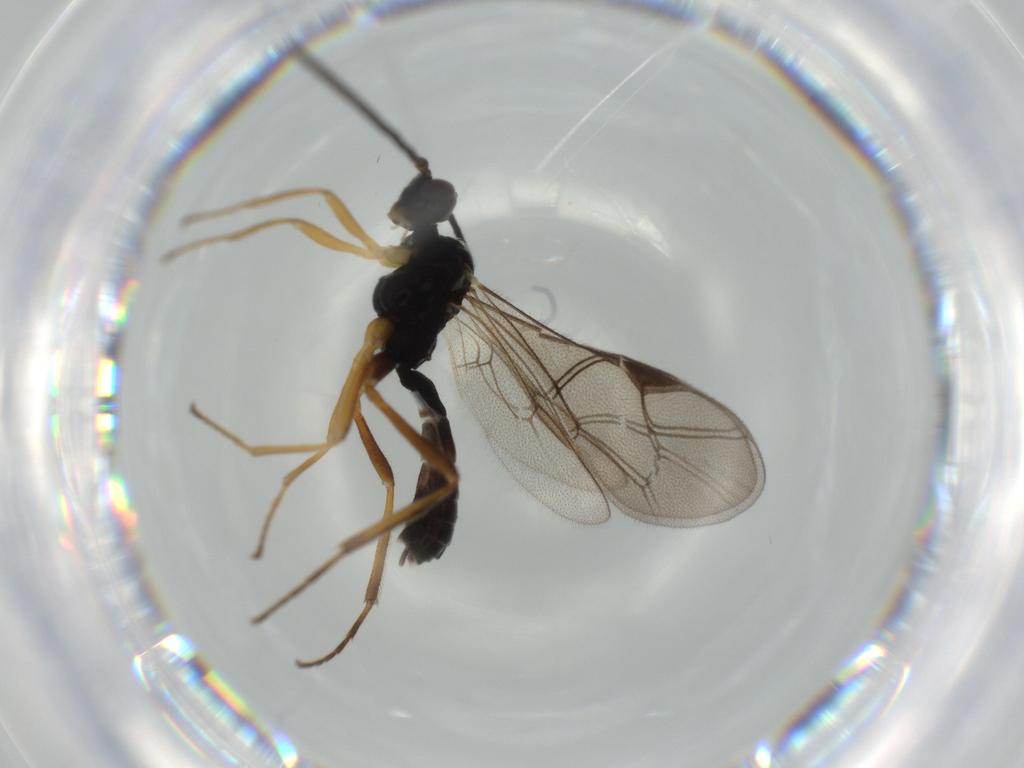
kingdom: Animalia
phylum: Arthropoda
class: Insecta
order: Hymenoptera
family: Ichneumonidae
